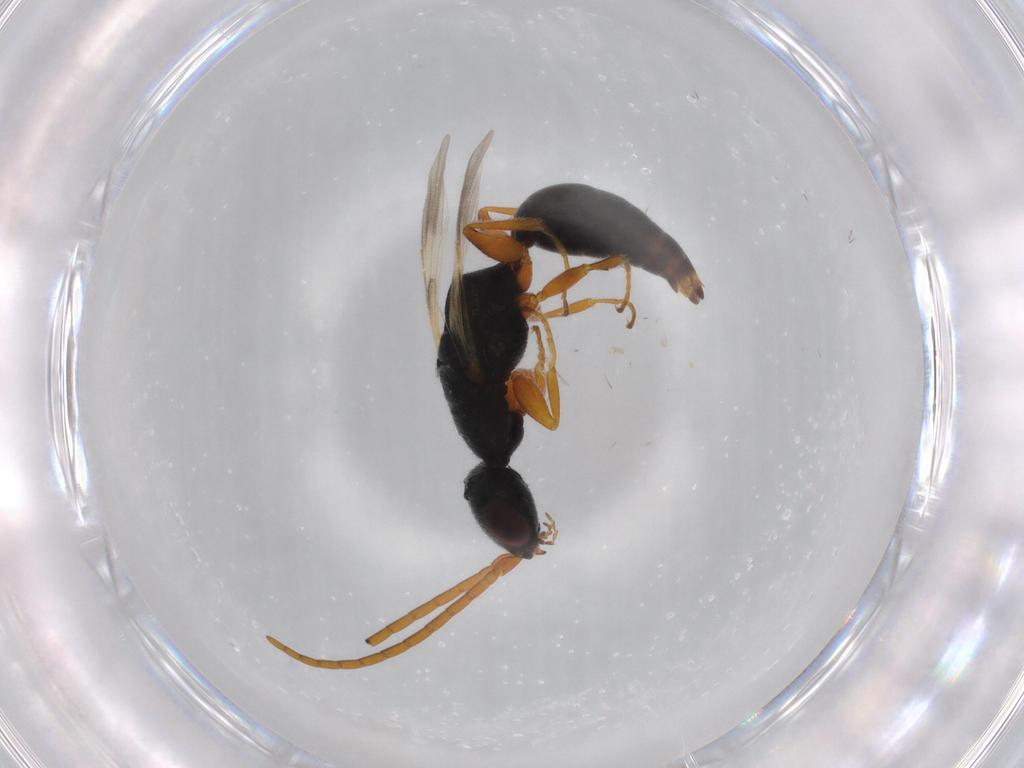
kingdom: Animalia
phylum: Arthropoda
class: Insecta
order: Hymenoptera
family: Bethylidae
